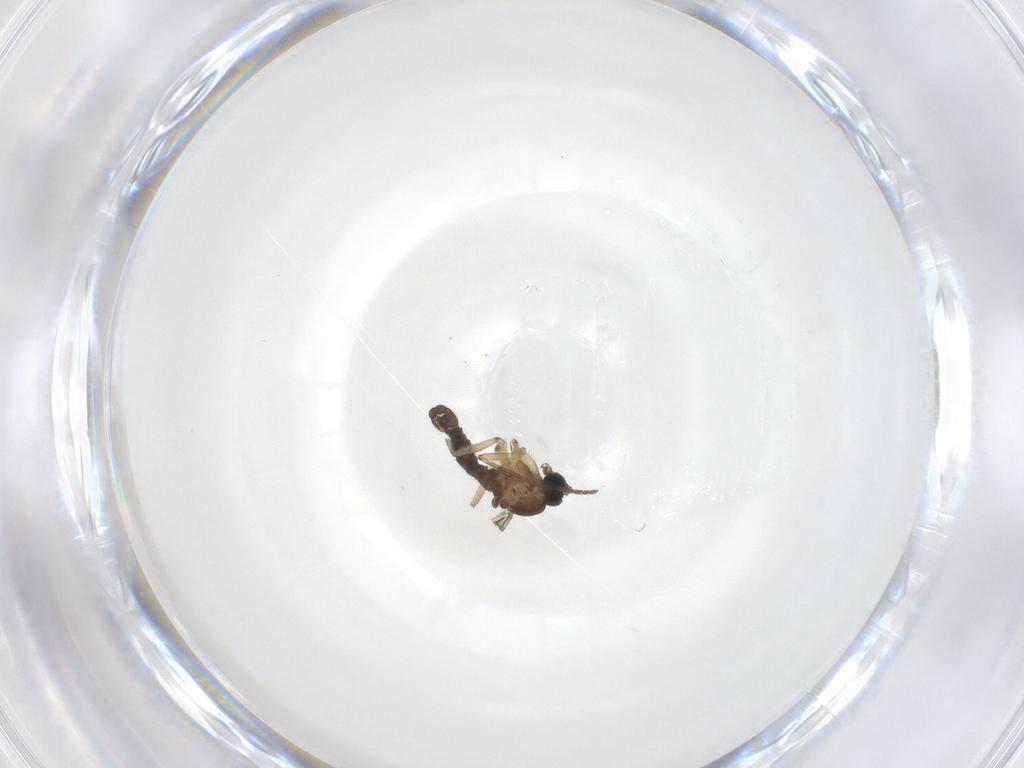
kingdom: Animalia
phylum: Arthropoda
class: Insecta
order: Diptera
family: Sciaridae
